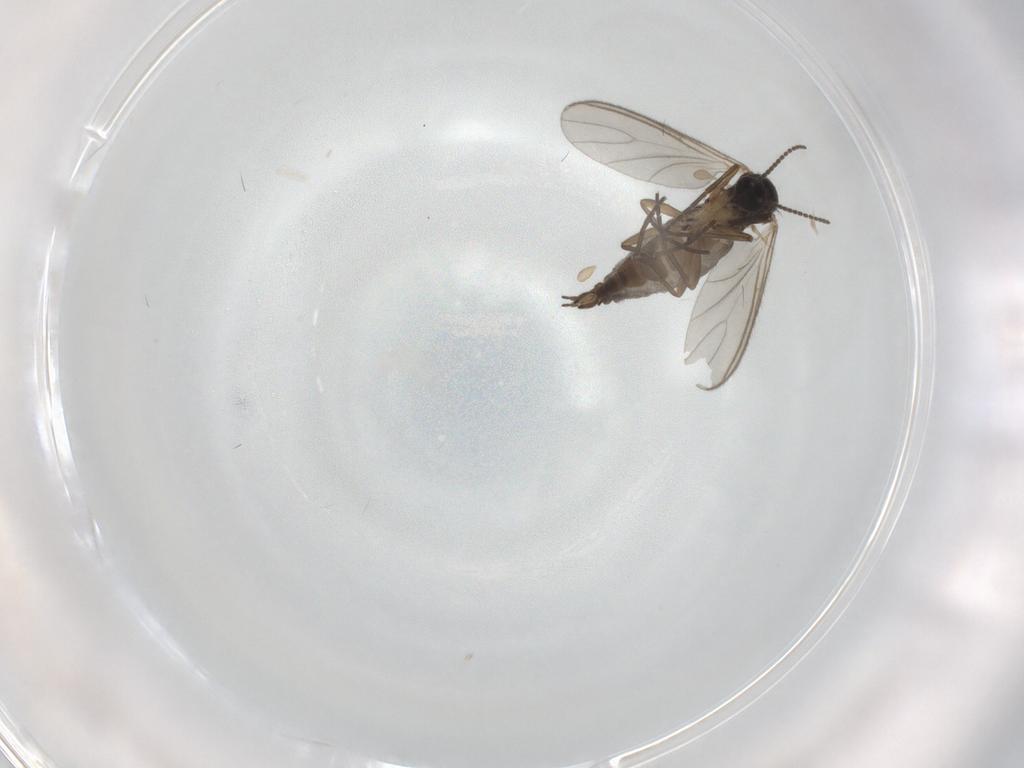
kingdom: Animalia
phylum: Arthropoda
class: Insecta
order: Diptera
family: Sciaridae
